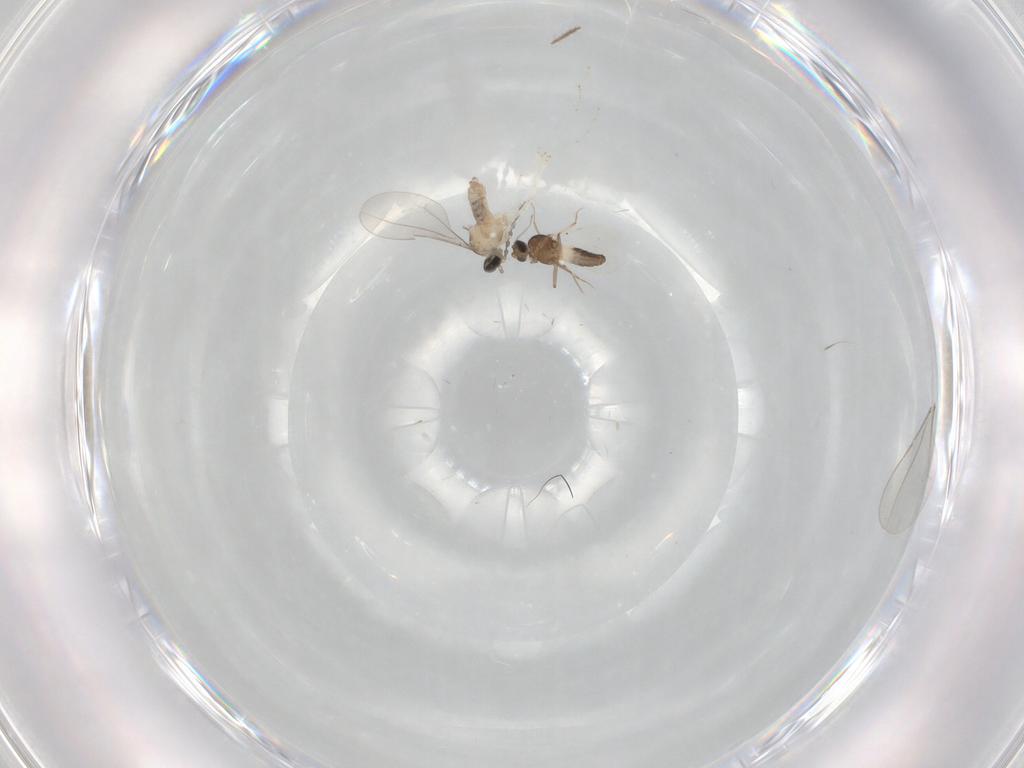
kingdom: Animalia
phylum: Arthropoda
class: Insecta
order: Diptera
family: Ceratopogonidae
